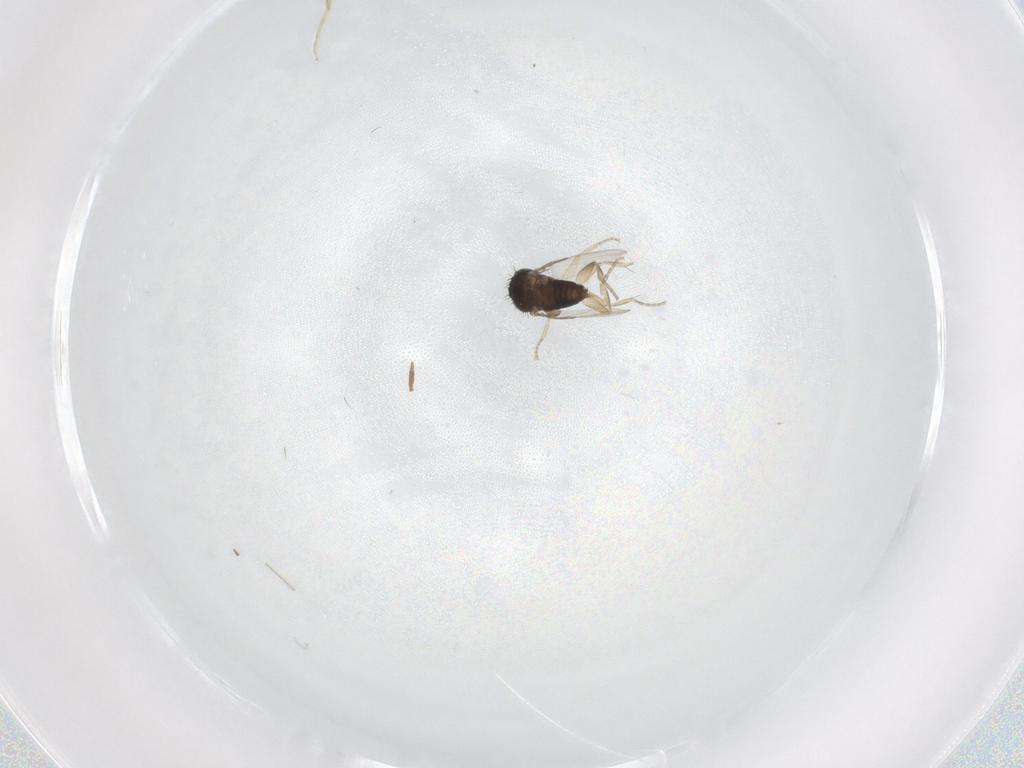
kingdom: Animalia
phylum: Arthropoda
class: Insecta
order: Diptera
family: Phoridae
